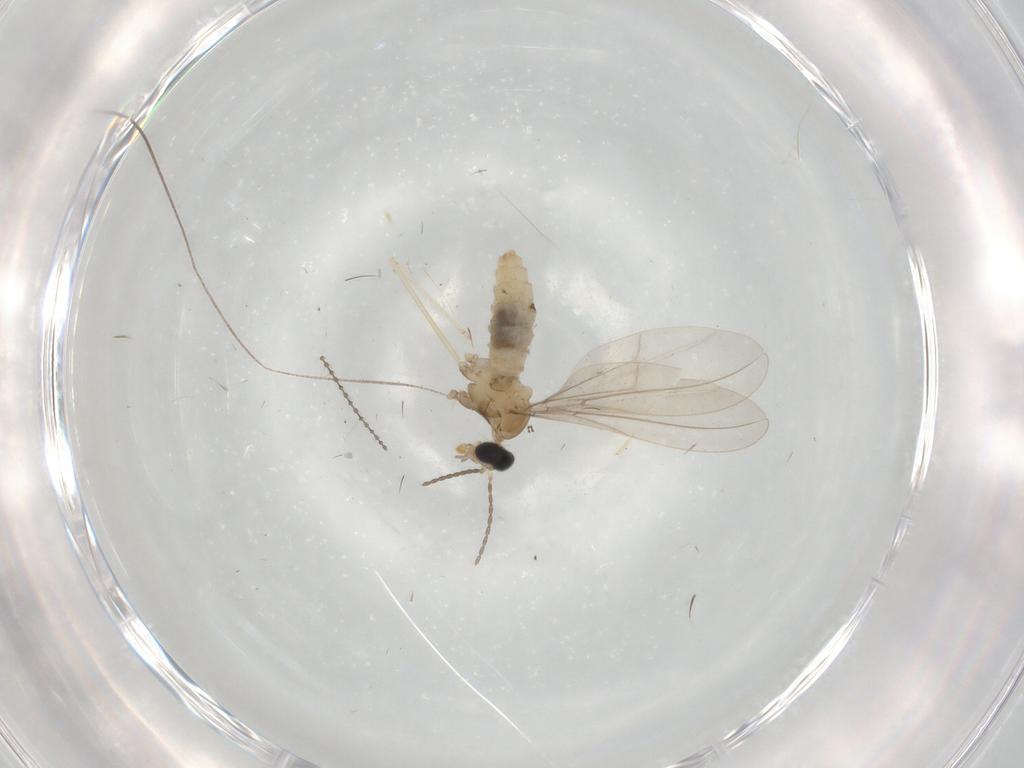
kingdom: Animalia
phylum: Arthropoda
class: Insecta
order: Diptera
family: Cecidomyiidae
